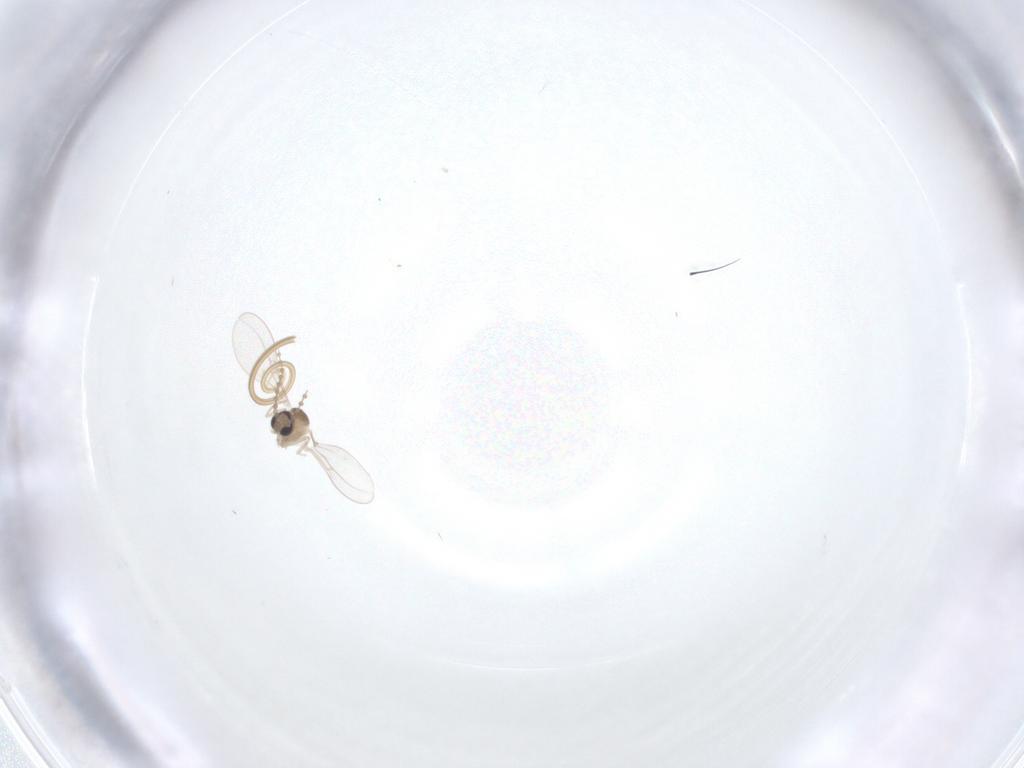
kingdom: Animalia
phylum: Arthropoda
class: Insecta
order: Diptera
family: Cecidomyiidae
